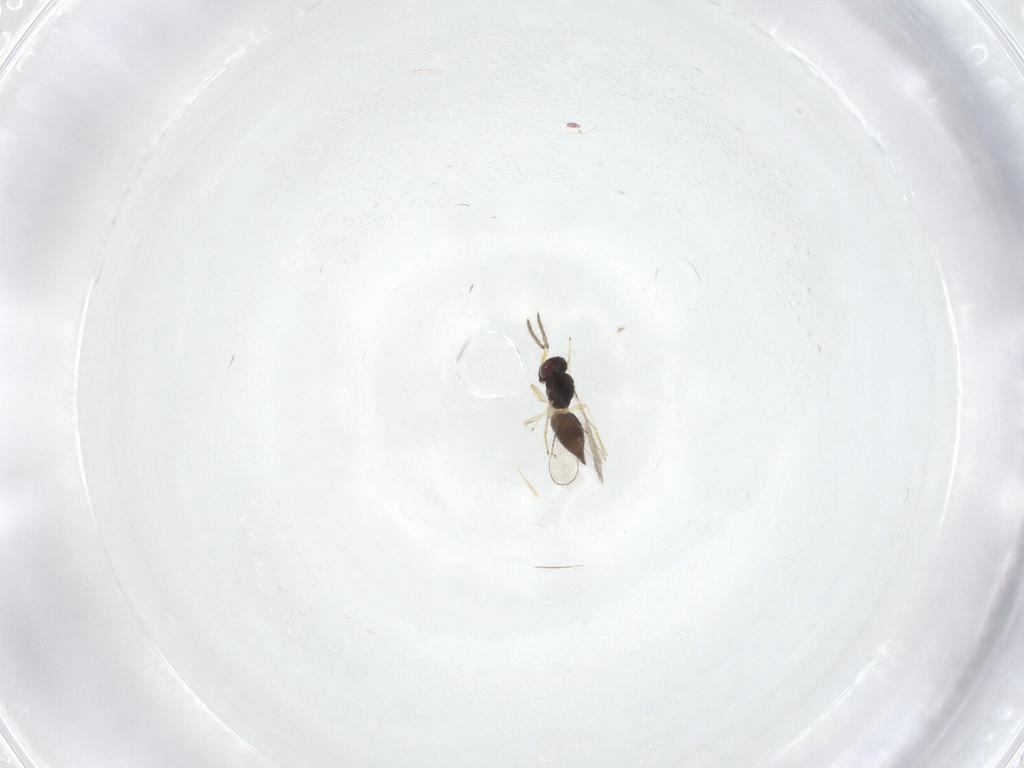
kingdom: Animalia
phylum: Arthropoda
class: Insecta
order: Hymenoptera
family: Eulophidae
